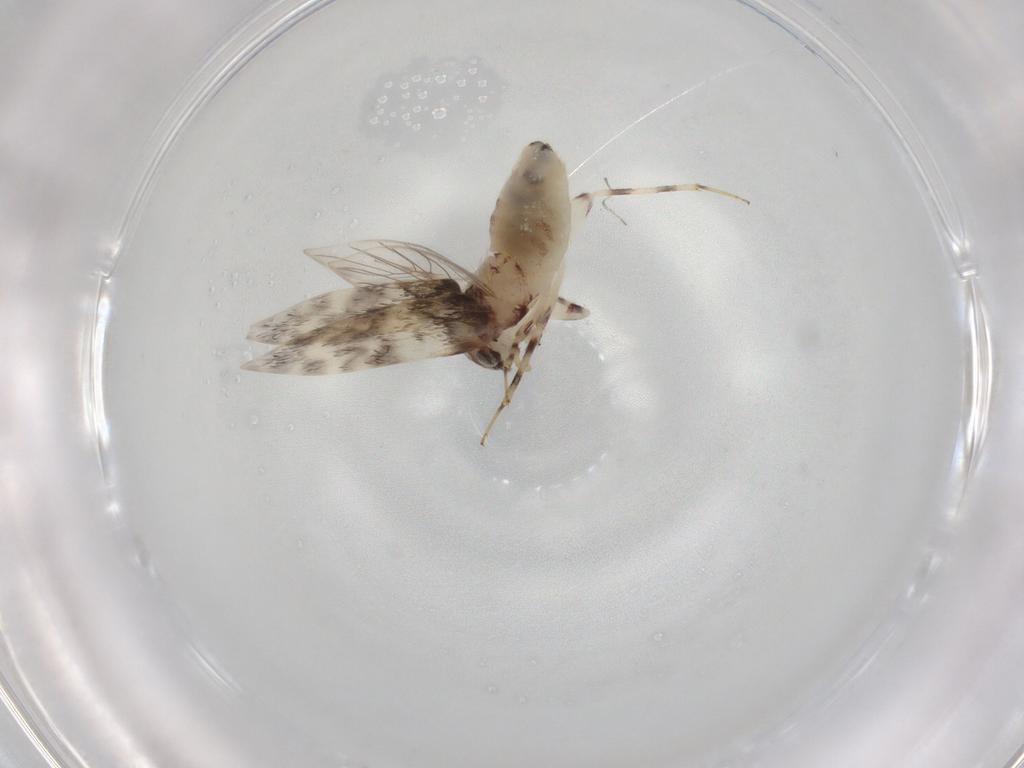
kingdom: Animalia
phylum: Arthropoda
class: Insecta
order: Psocodea
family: Lepidopsocidae
